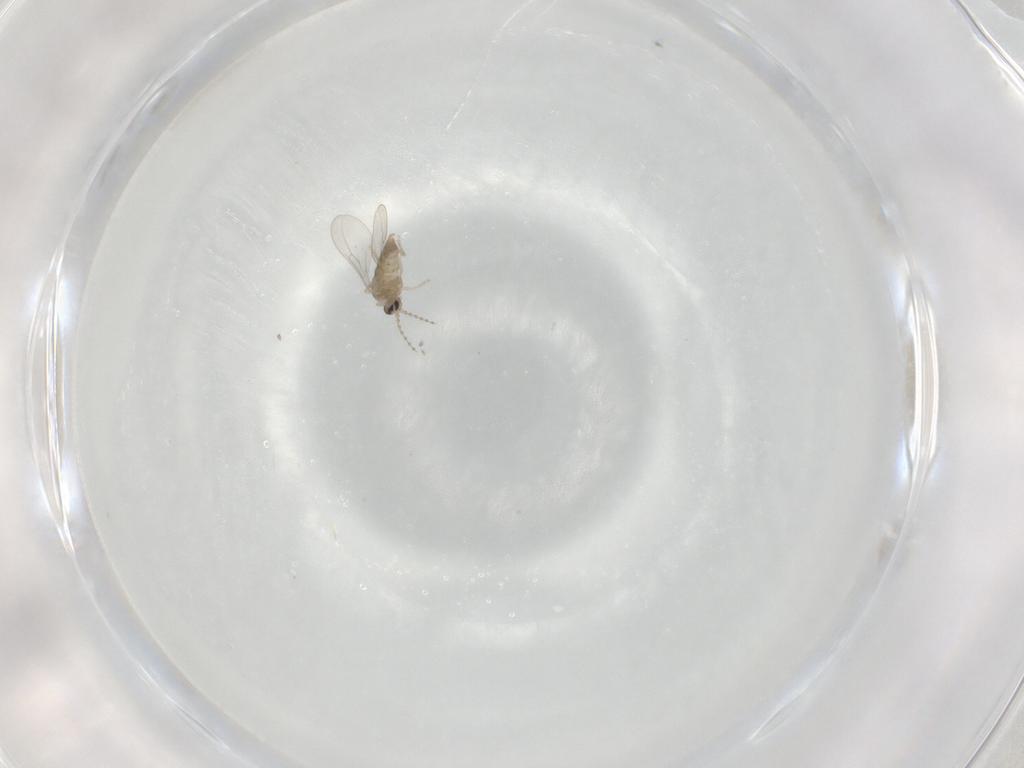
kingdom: Animalia
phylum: Arthropoda
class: Insecta
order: Diptera
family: Cecidomyiidae
